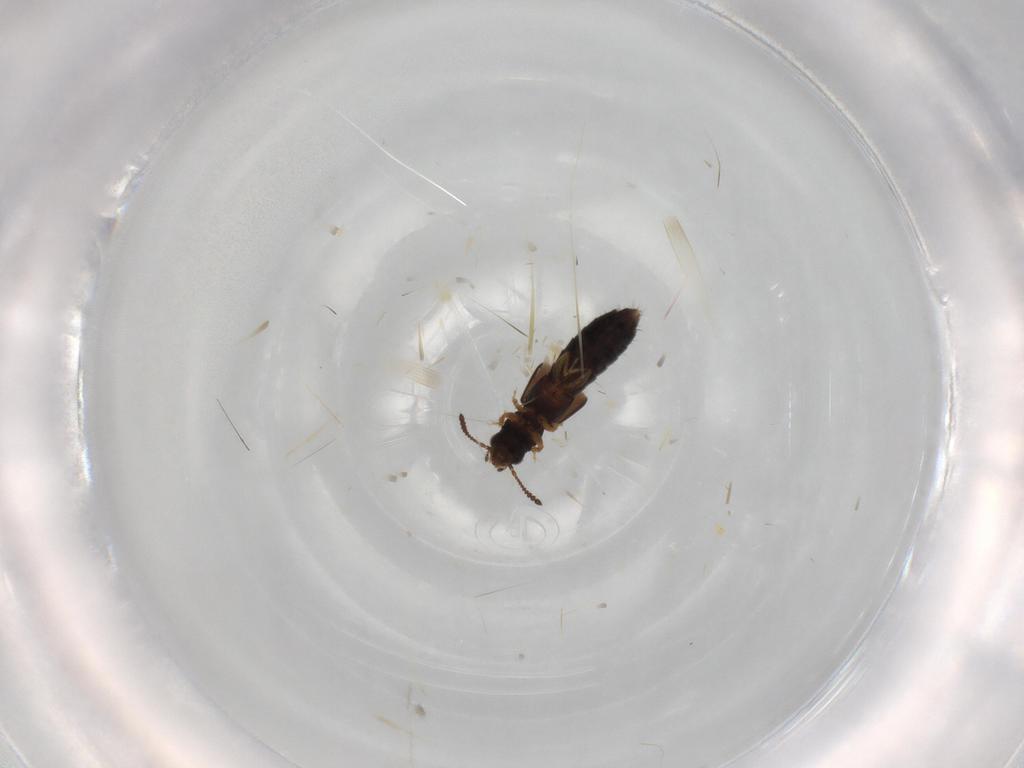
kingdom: Animalia
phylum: Arthropoda
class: Insecta
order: Coleoptera
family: Staphylinidae
